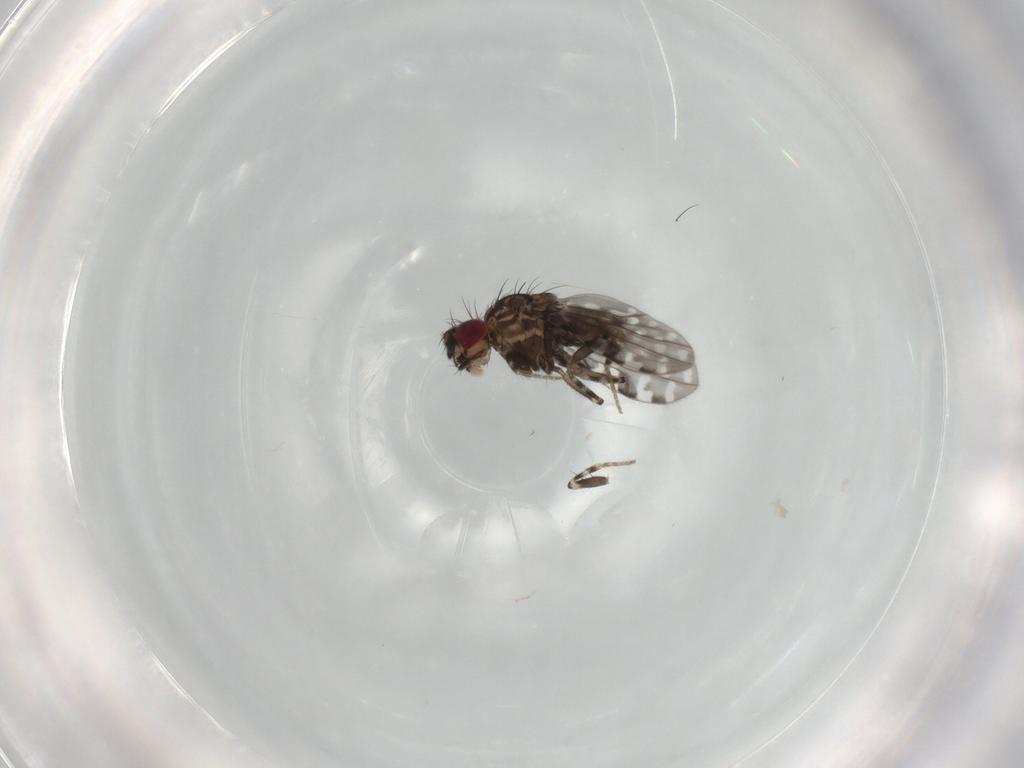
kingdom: Animalia
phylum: Arthropoda
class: Insecta
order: Diptera
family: Drosophilidae
